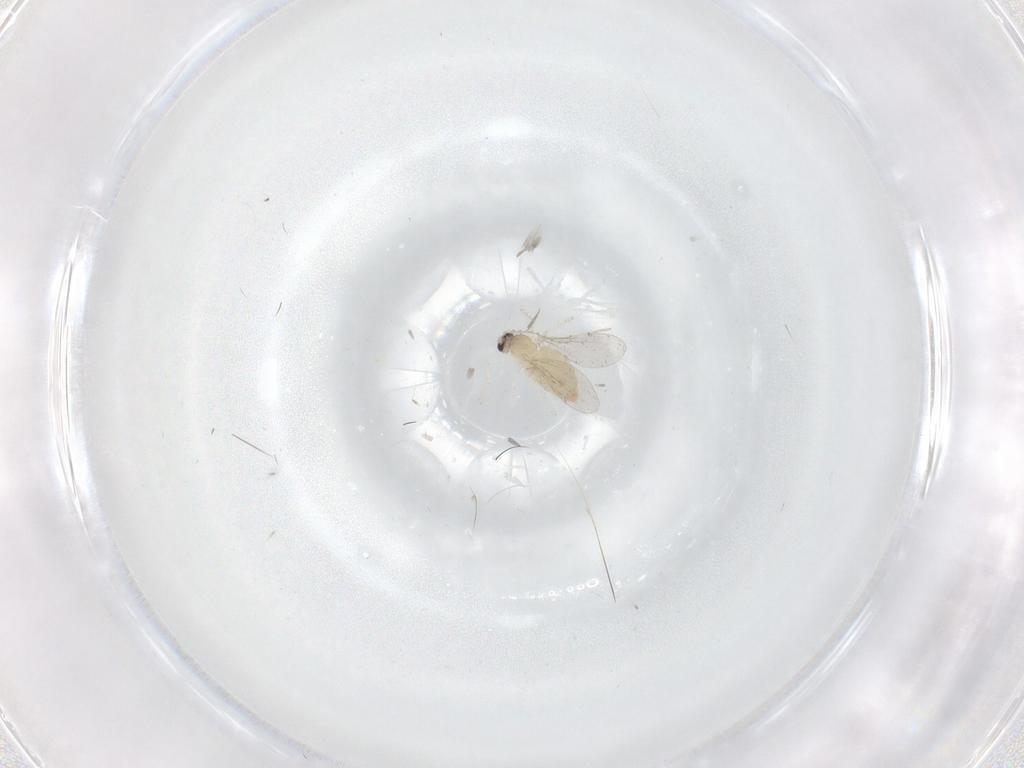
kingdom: Animalia
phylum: Arthropoda
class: Insecta
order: Diptera
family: Cecidomyiidae
